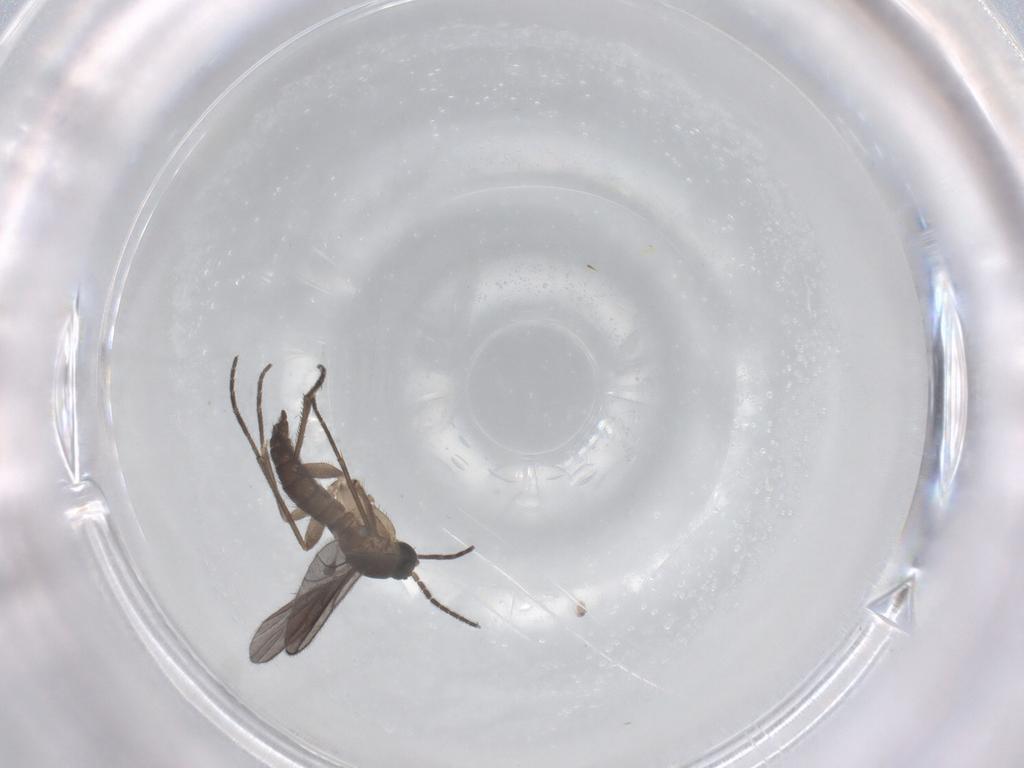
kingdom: Animalia
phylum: Arthropoda
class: Insecta
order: Diptera
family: Sciaridae
